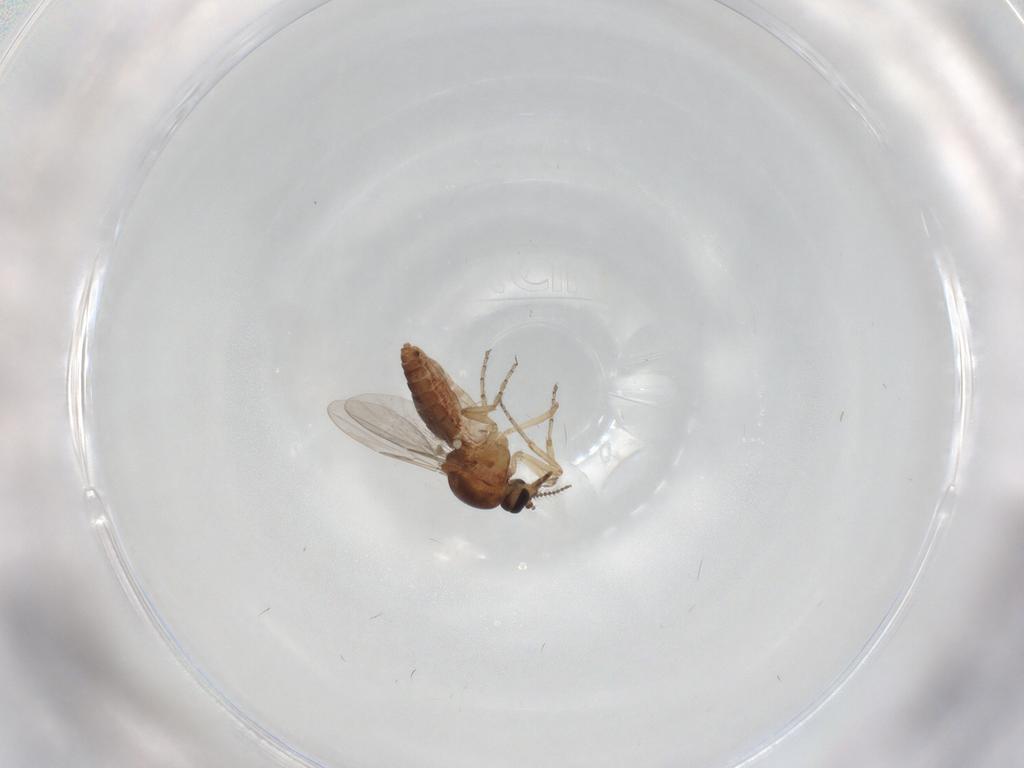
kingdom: Animalia
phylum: Arthropoda
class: Insecta
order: Diptera
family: Ceratopogonidae
